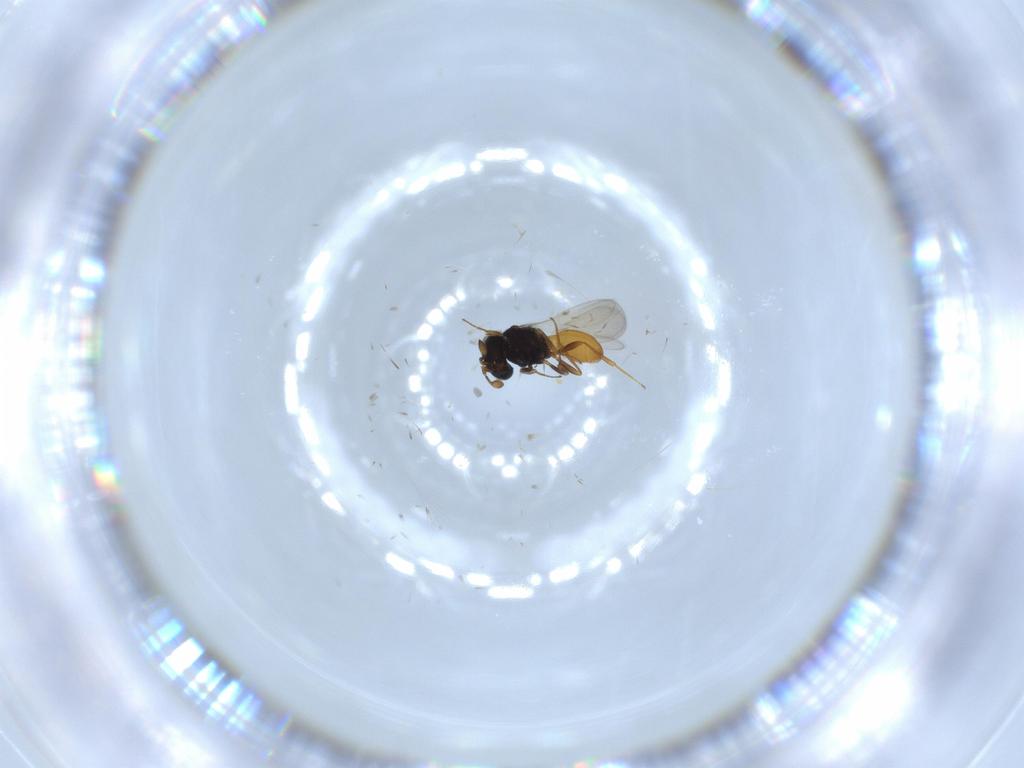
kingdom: Animalia
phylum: Arthropoda
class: Insecta
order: Hymenoptera
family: Scelionidae
